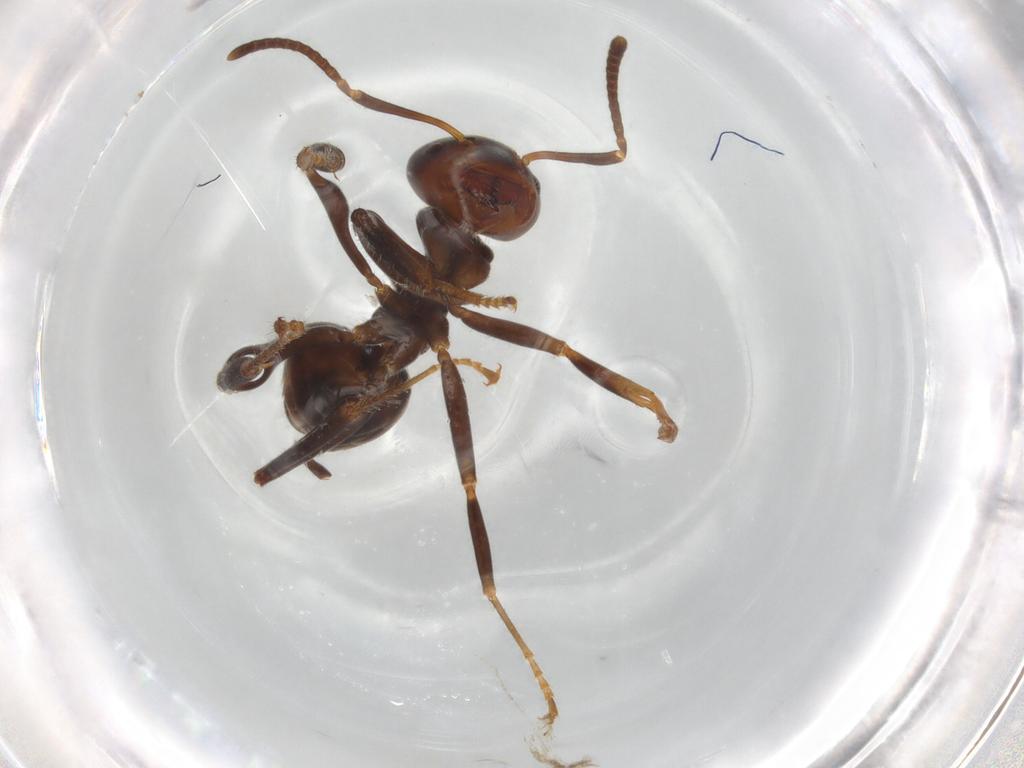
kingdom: Animalia
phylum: Arthropoda
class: Insecta
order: Hymenoptera
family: Formicidae
